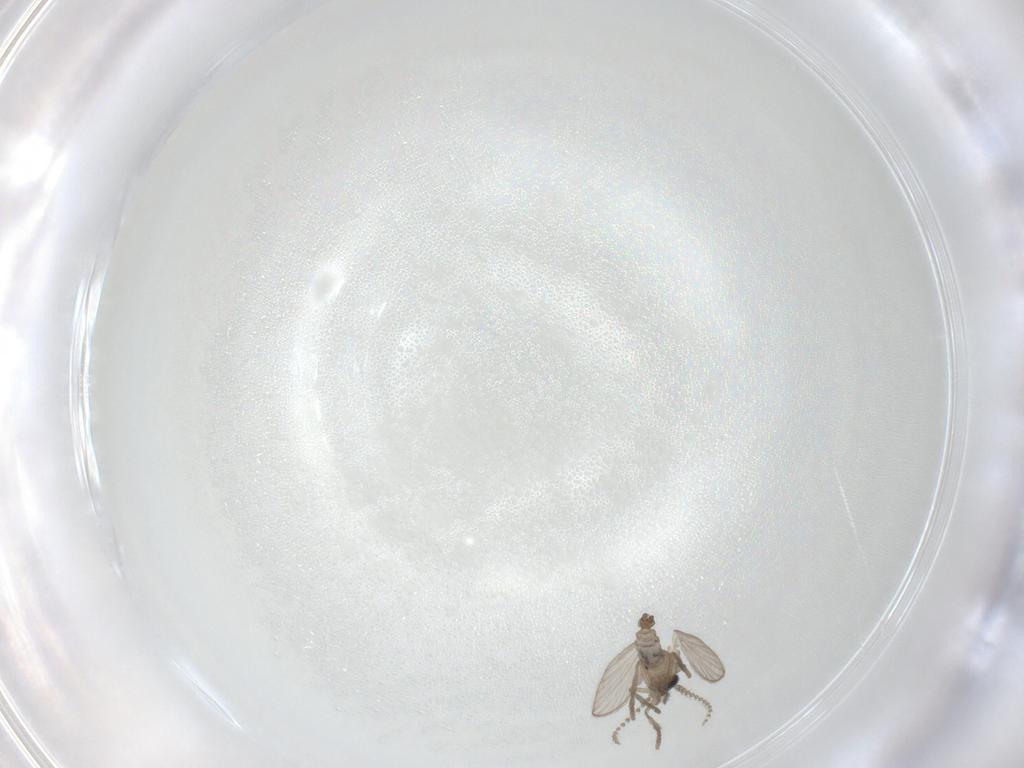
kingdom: Animalia
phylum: Arthropoda
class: Insecta
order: Diptera
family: Psychodidae
